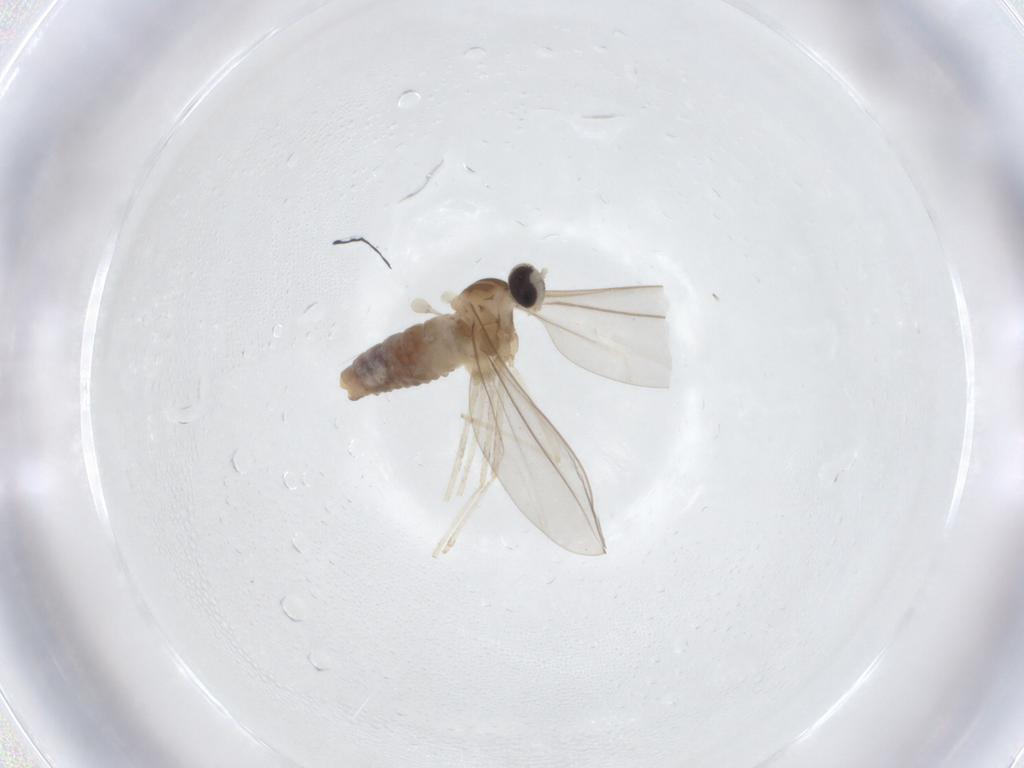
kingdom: Animalia
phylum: Arthropoda
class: Insecta
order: Diptera
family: Cecidomyiidae
